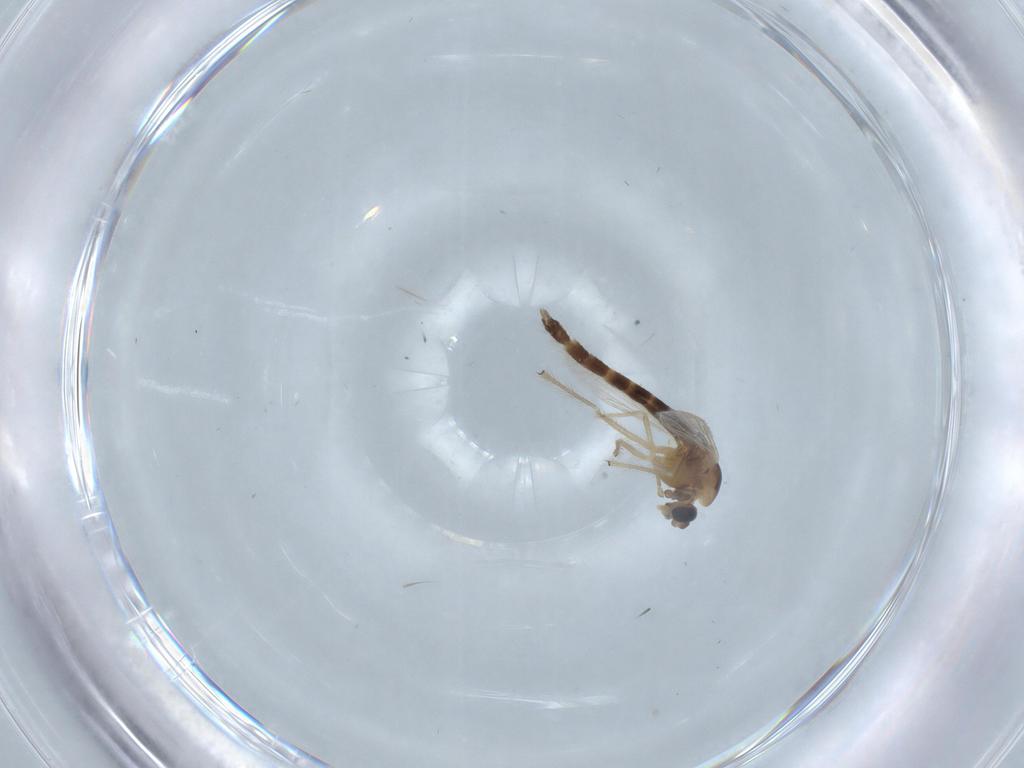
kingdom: Animalia
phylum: Arthropoda
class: Insecta
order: Diptera
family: Chironomidae
